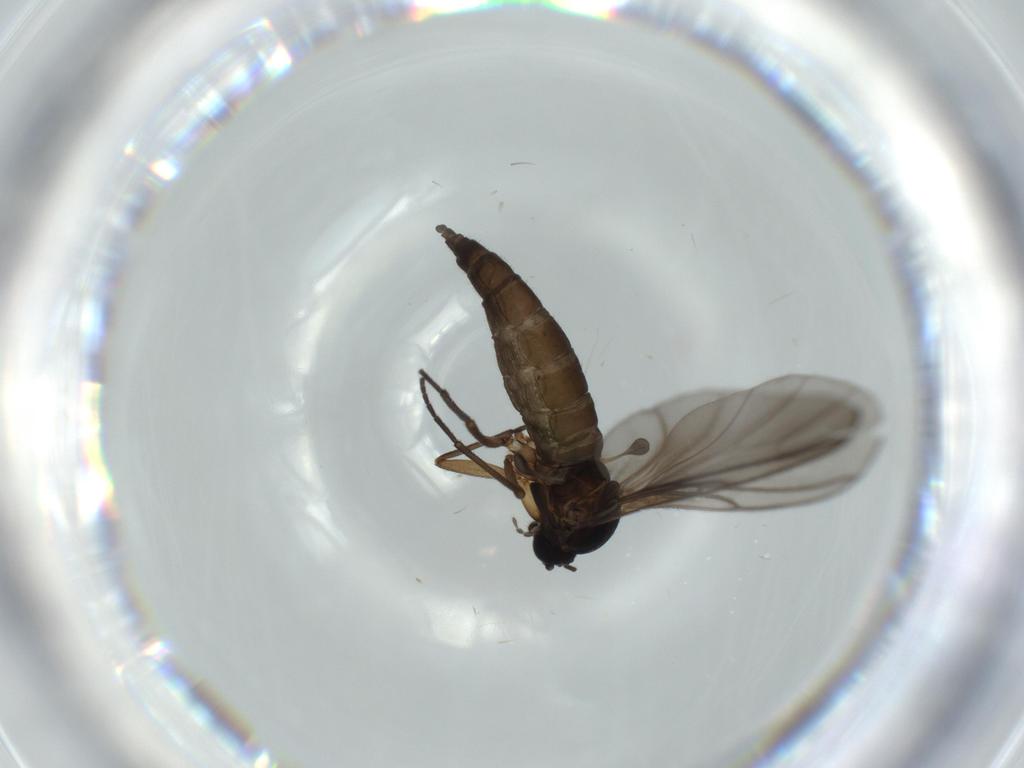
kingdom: Animalia
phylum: Arthropoda
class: Insecta
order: Diptera
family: Sciaridae
